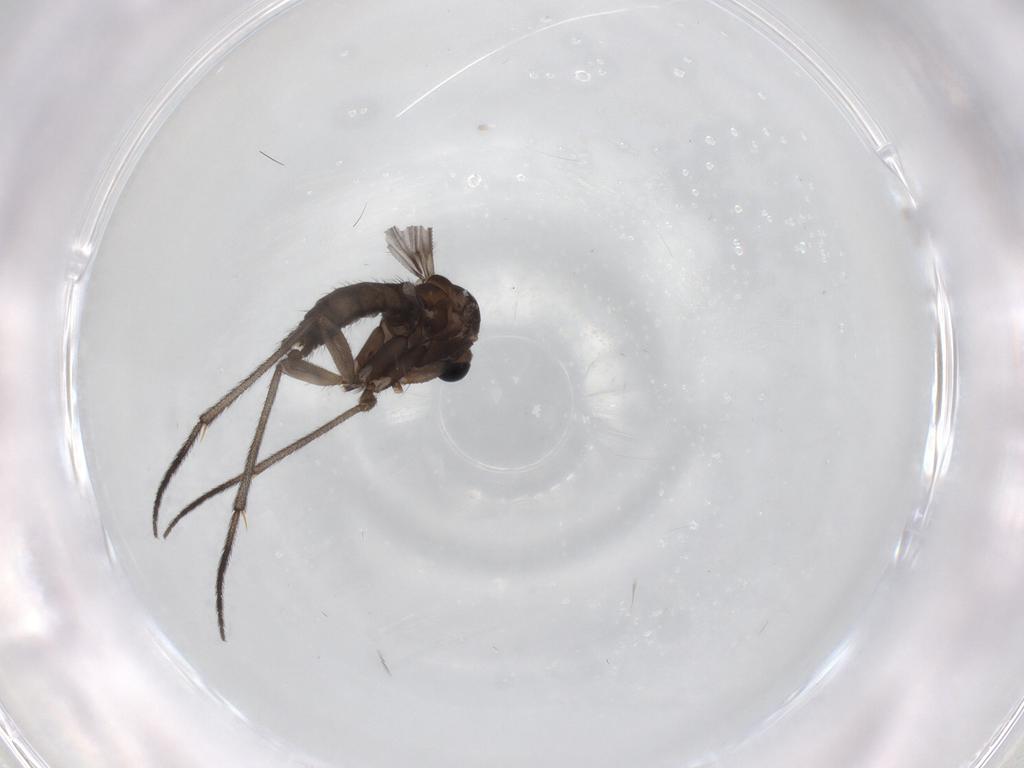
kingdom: Animalia
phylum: Arthropoda
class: Insecta
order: Diptera
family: Sciaridae
